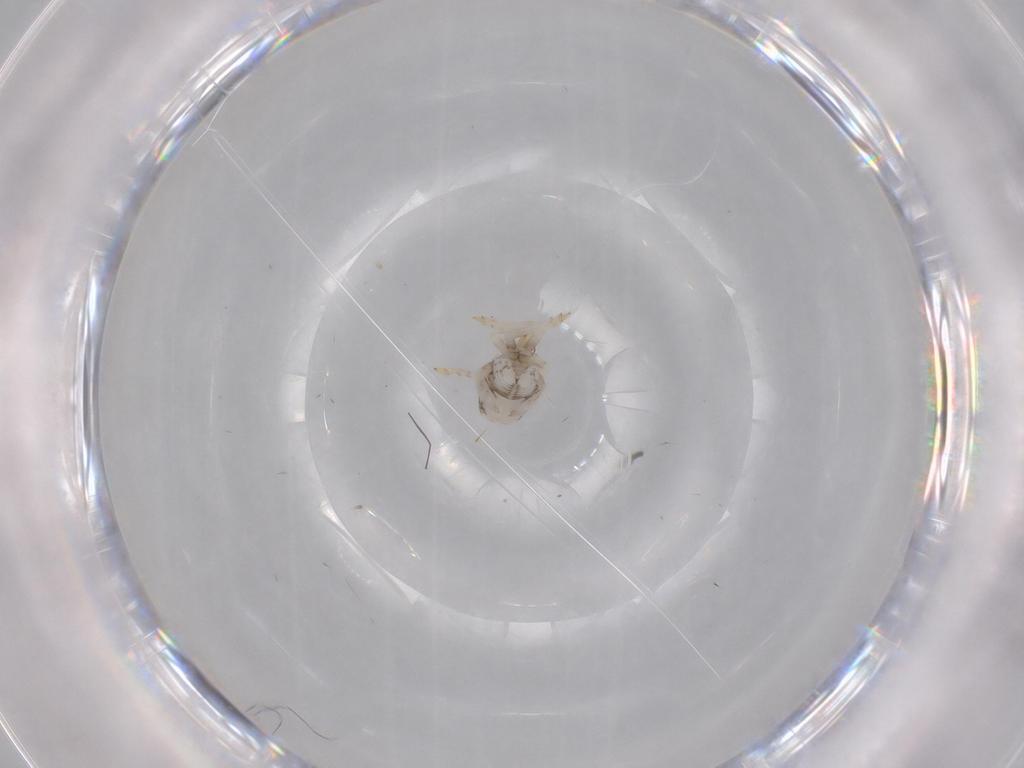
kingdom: Animalia
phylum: Arthropoda
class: Insecta
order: Hemiptera
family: Acanaloniidae
